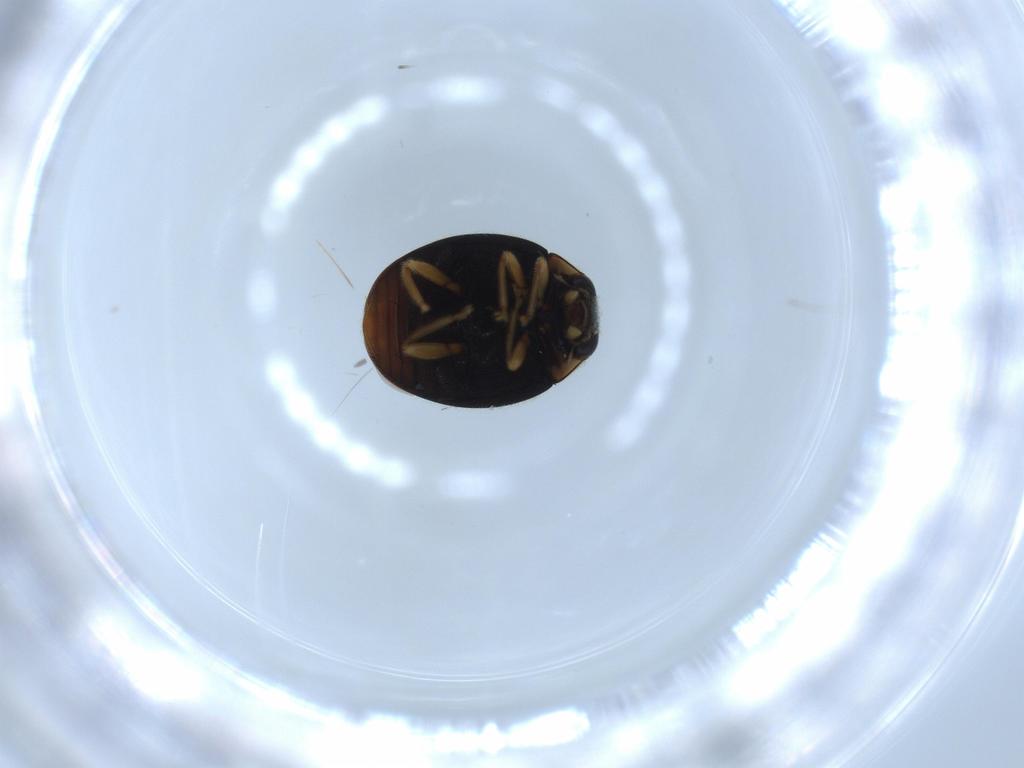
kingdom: Animalia
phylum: Arthropoda
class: Insecta
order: Coleoptera
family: Coccinellidae
